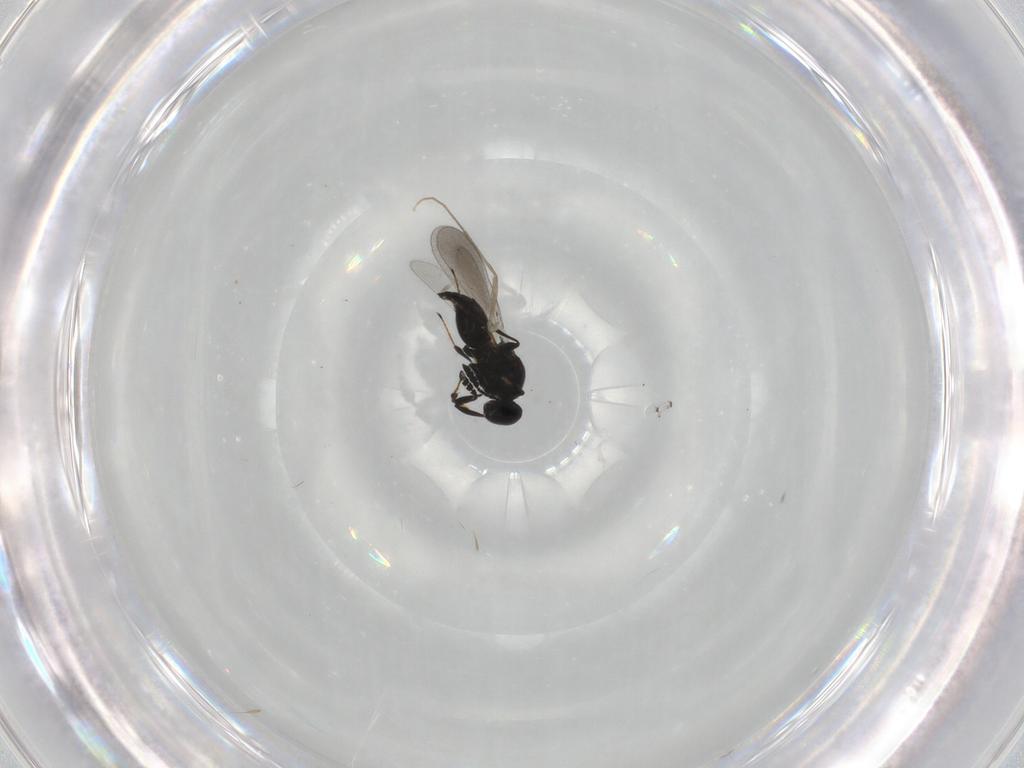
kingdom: Animalia
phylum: Arthropoda
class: Insecta
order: Hymenoptera
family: Platygastridae
